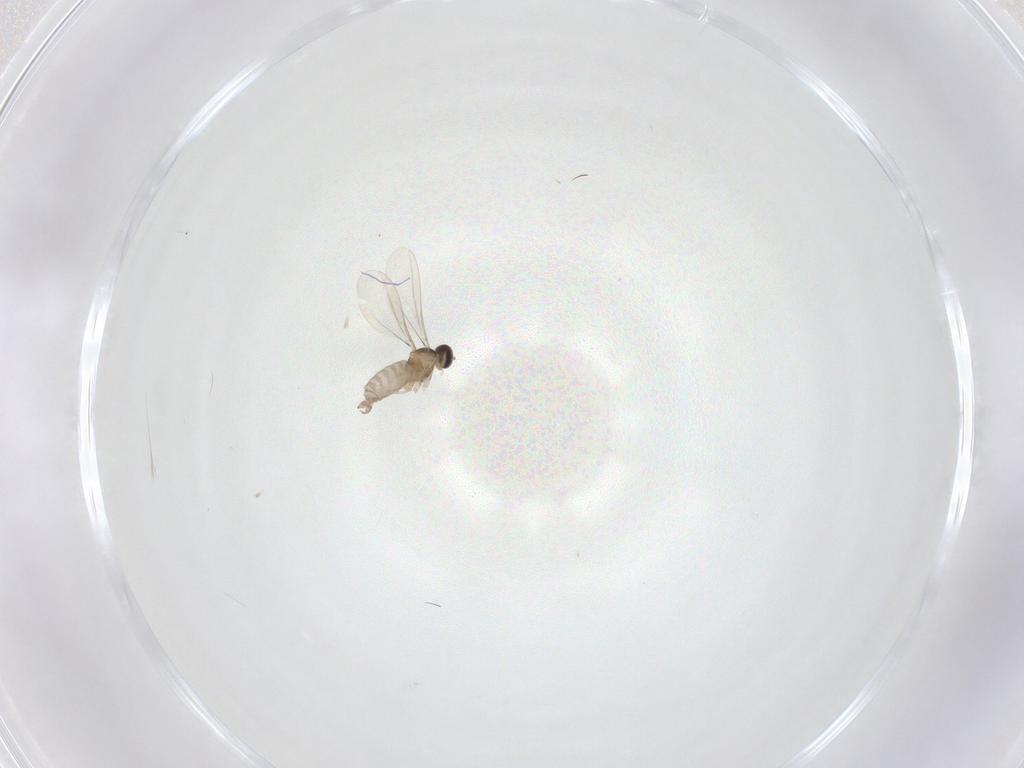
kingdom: Animalia
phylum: Arthropoda
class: Insecta
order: Diptera
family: Cecidomyiidae
